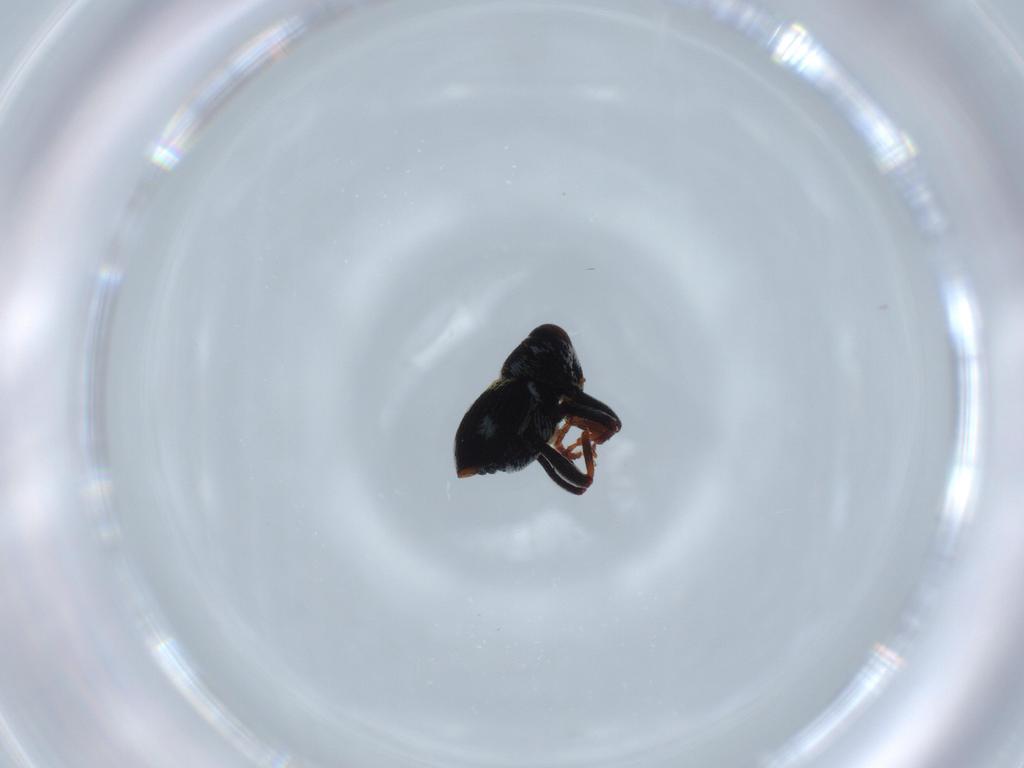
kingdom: Animalia
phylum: Arthropoda
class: Insecta
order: Coleoptera
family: Curculionidae
